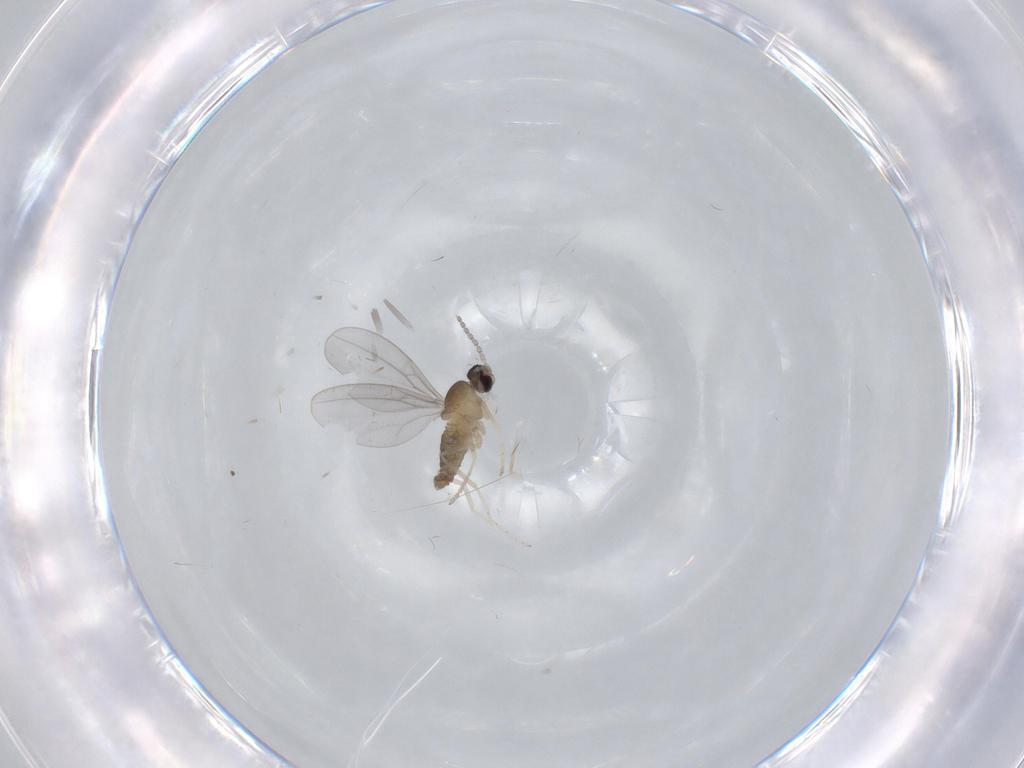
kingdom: Animalia
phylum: Arthropoda
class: Insecta
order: Diptera
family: Cecidomyiidae
